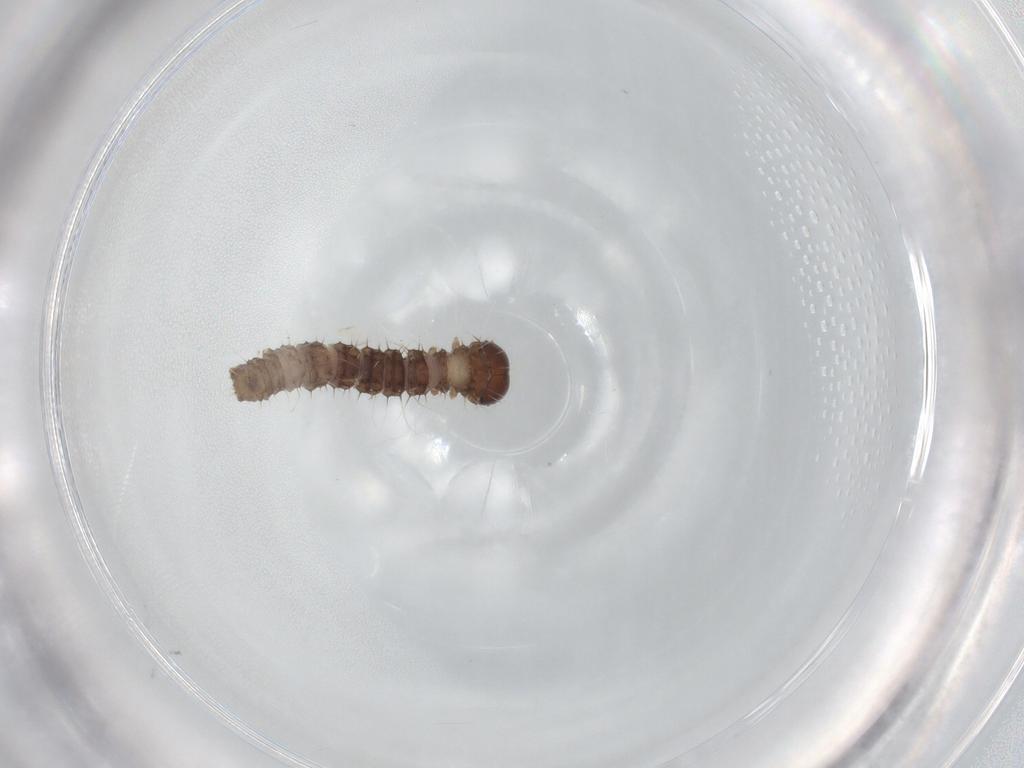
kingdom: Animalia
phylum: Arthropoda
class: Insecta
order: Lepidoptera
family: Geometridae
